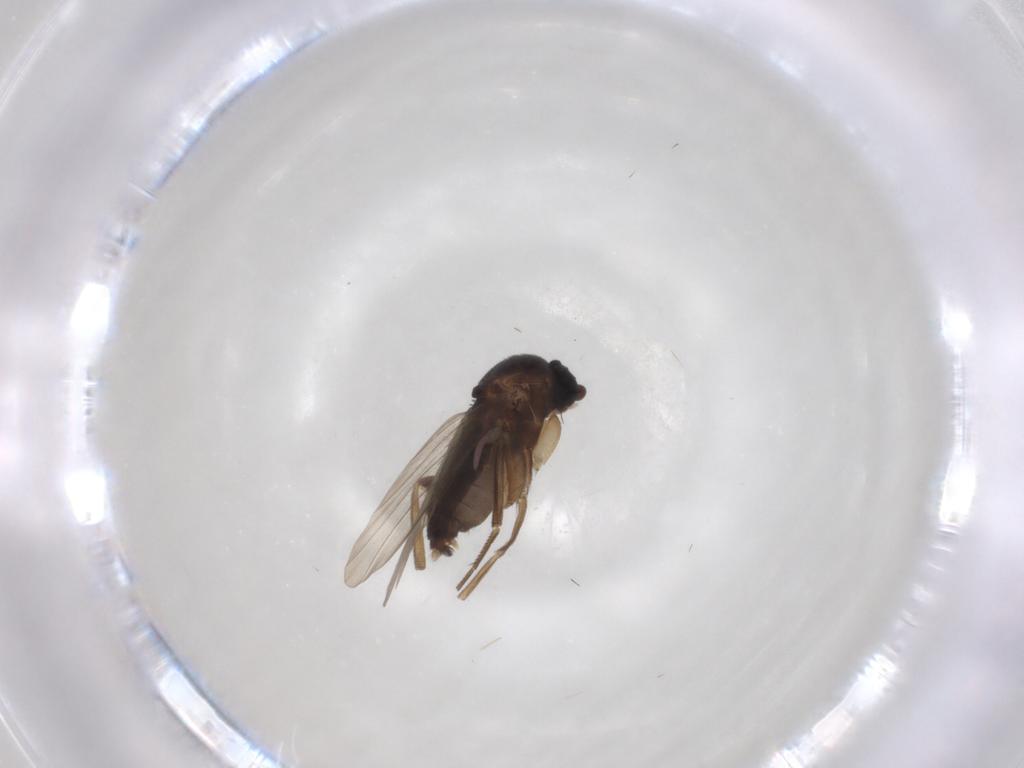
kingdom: Animalia
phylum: Arthropoda
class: Insecta
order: Diptera
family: Phoridae
